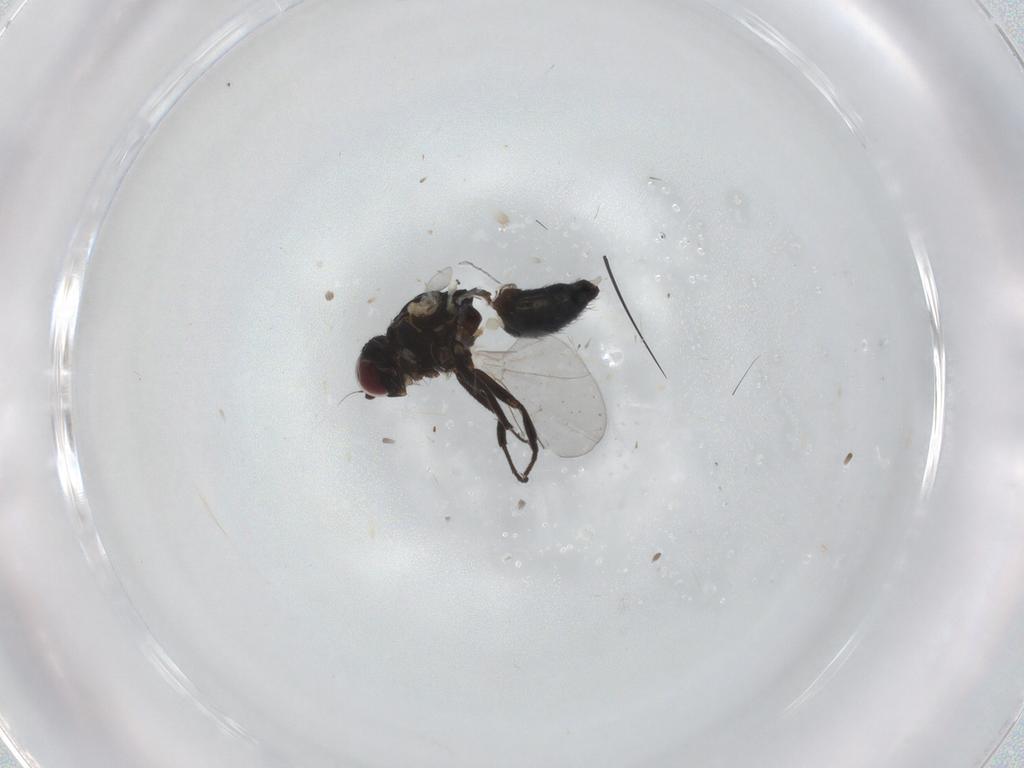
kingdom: Animalia
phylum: Arthropoda
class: Insecta
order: Diptera
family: Agromyzidae
